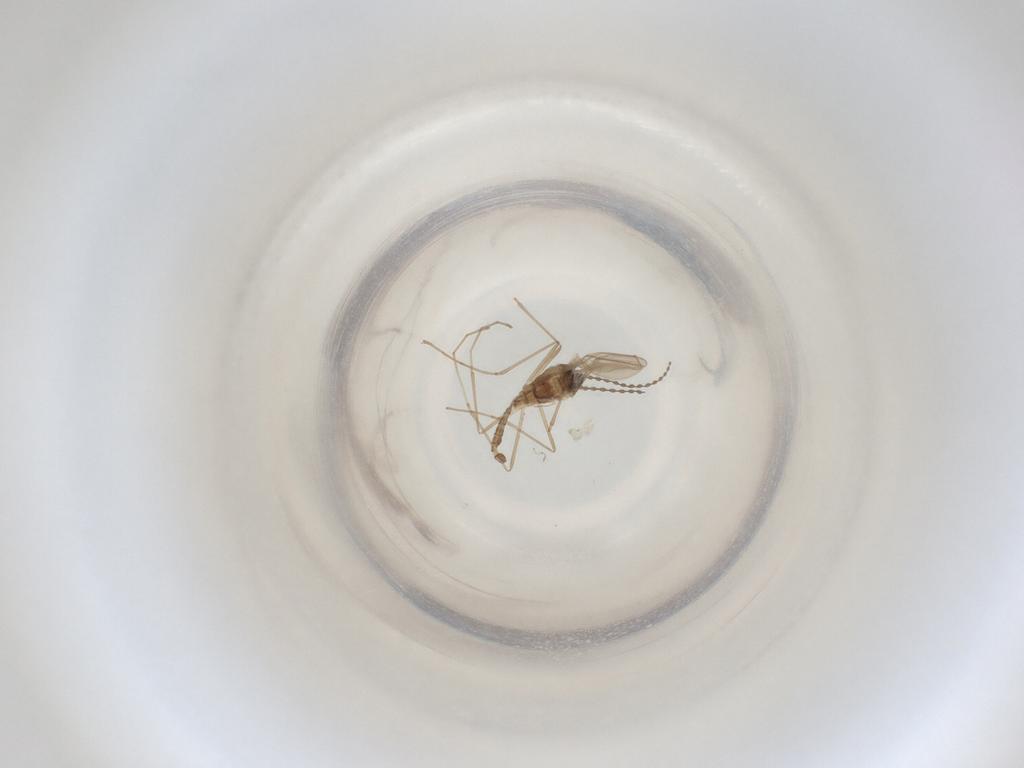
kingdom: Animalia
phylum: Arthropoda
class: Insecta
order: Diptera
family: Cecidomyiidae
